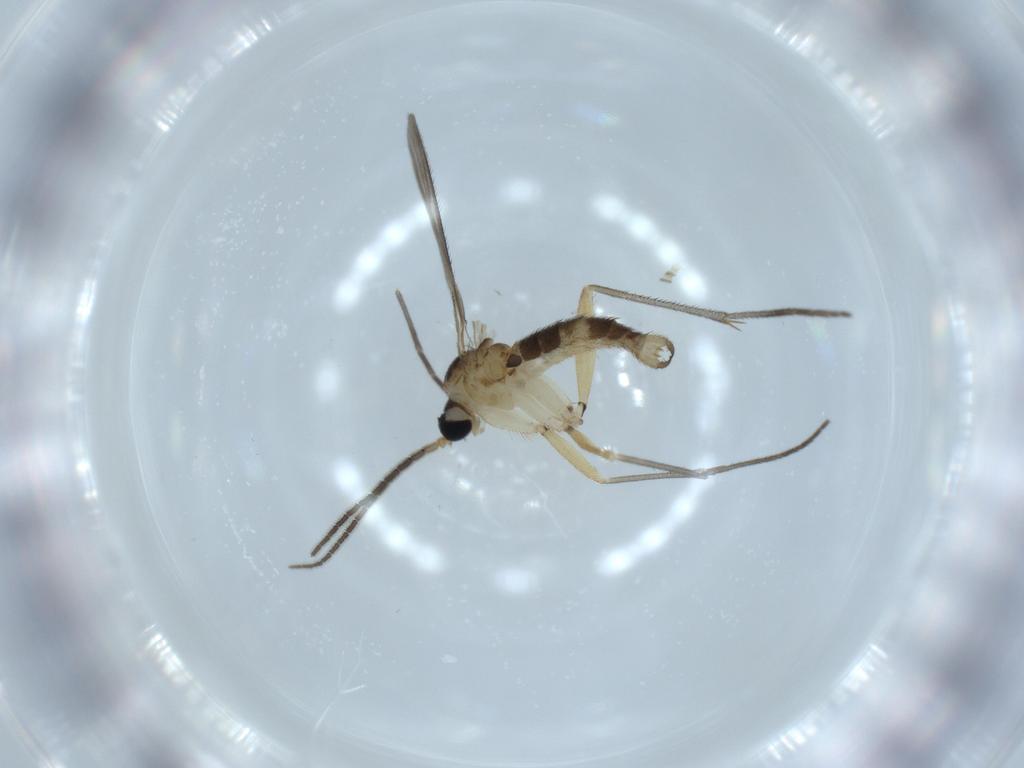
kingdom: Animalia
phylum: Arthropoda
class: Insecta
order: Diptera
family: Sciaridae
